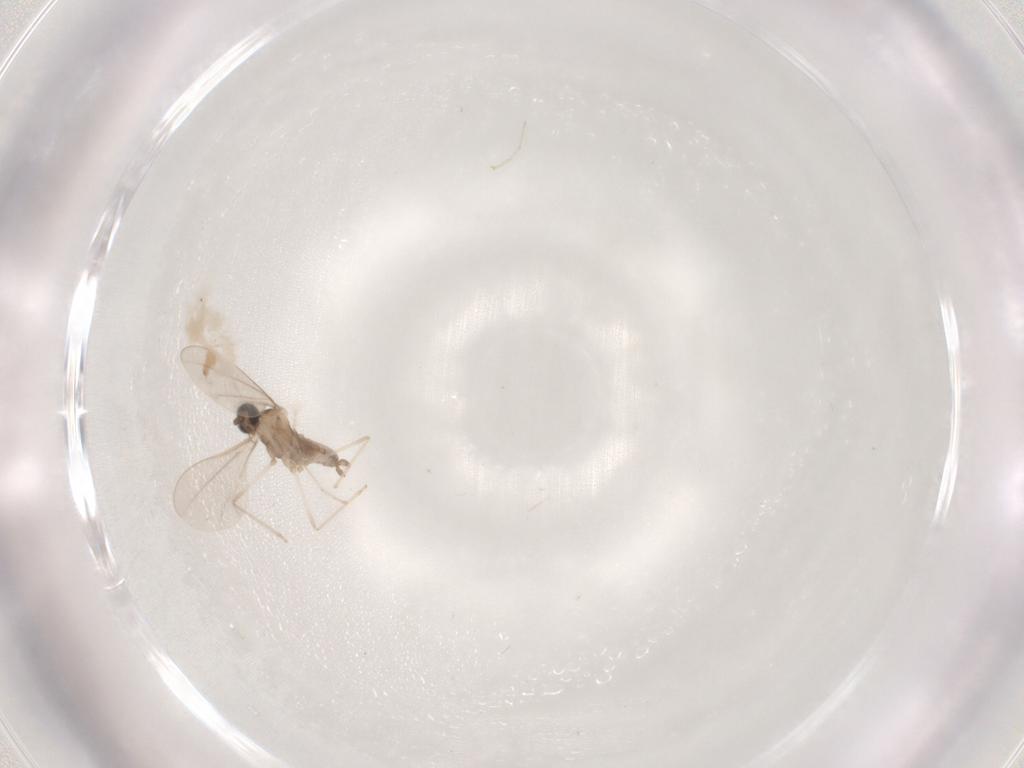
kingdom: Animalia
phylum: Arthropoda
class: Insecta
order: Diptera
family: Cecidomyiidae
